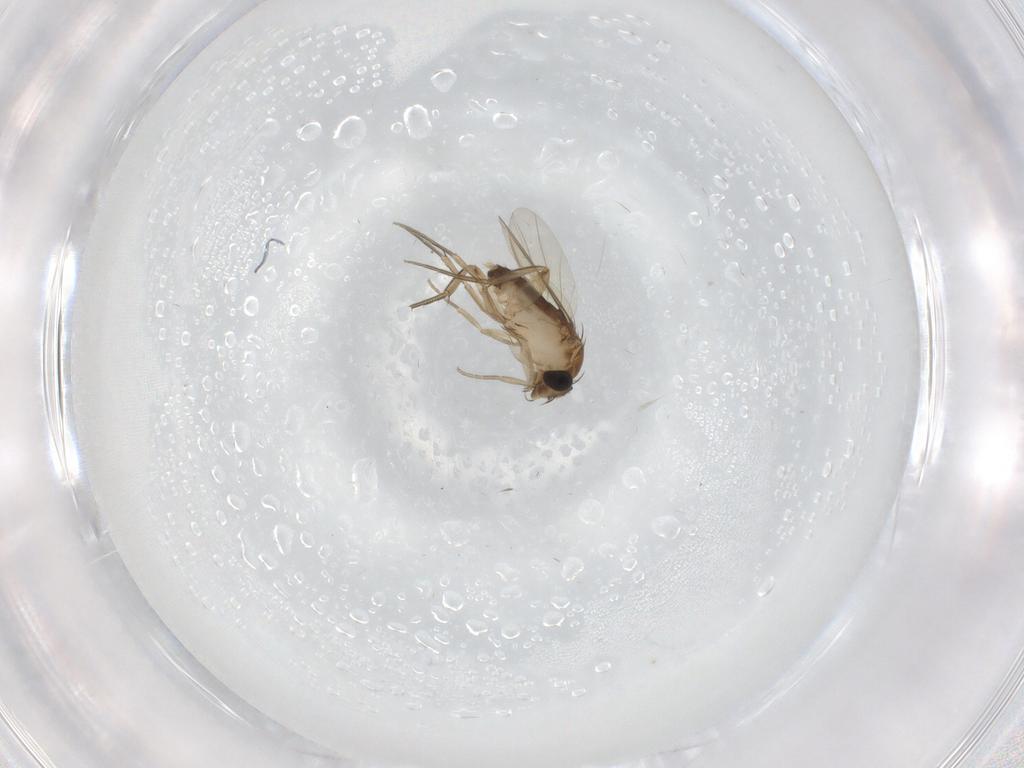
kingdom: Animalia
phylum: Arthropoda
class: Insecta
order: Diptera
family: Phoridae
